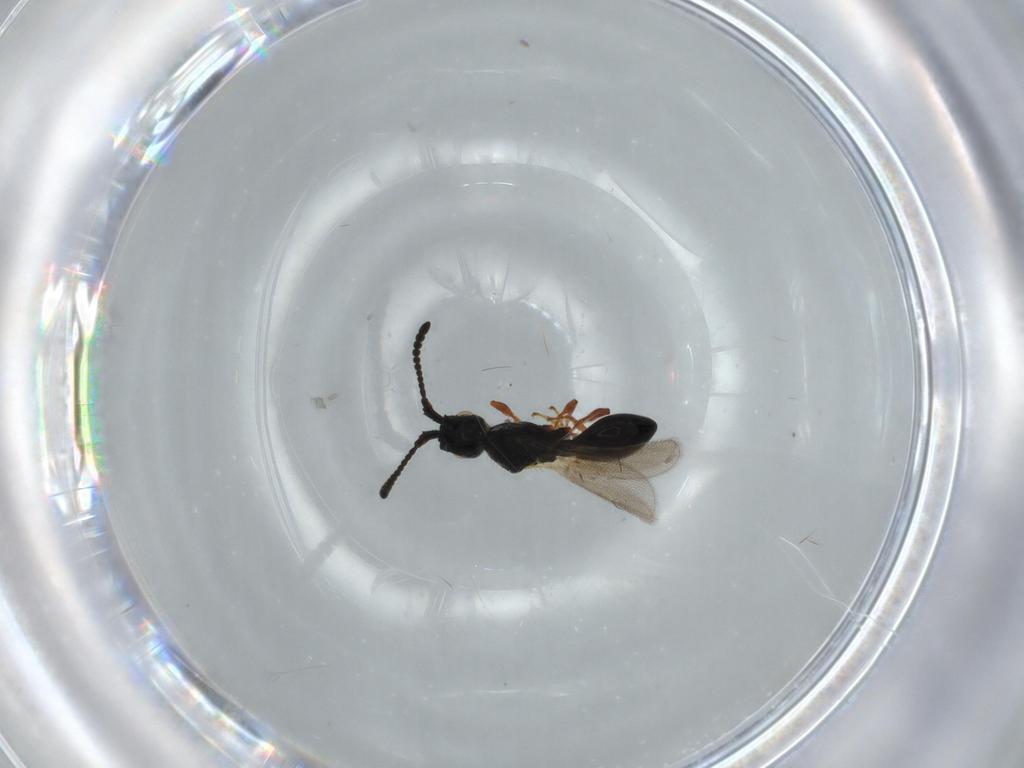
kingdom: Animalia
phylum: Arthropoda
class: Insecta
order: Hymenoptera
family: Diapriidae
